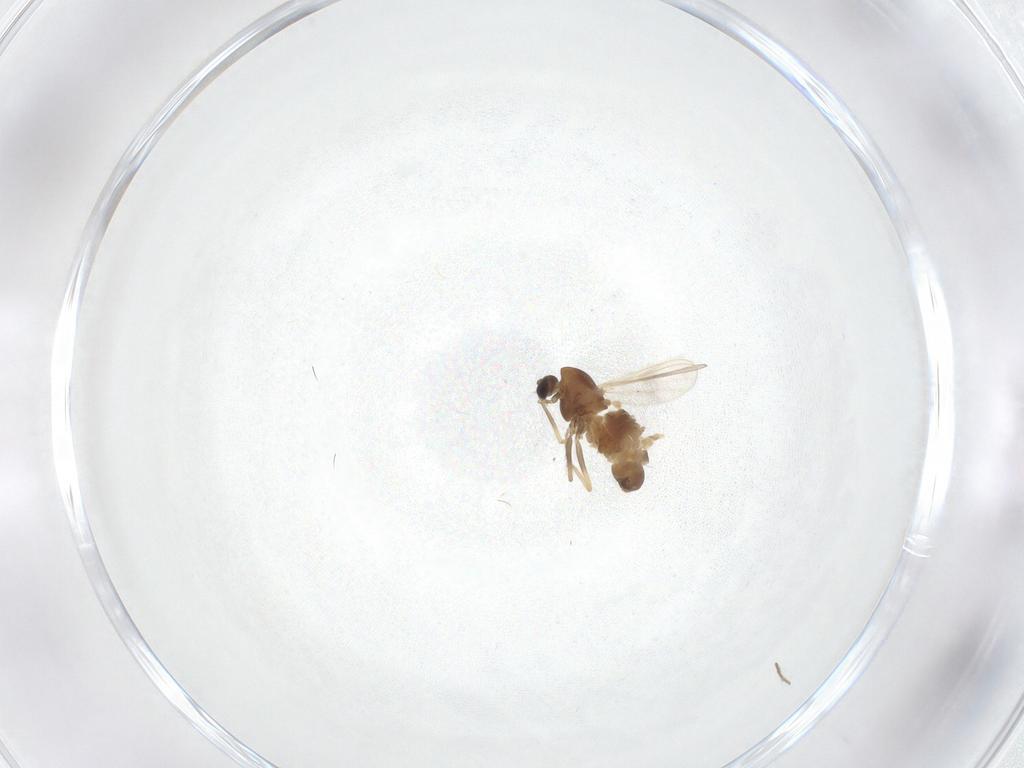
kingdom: Animalia
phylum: Arthropoda
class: Insecta
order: Diptera
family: Chironomidae
